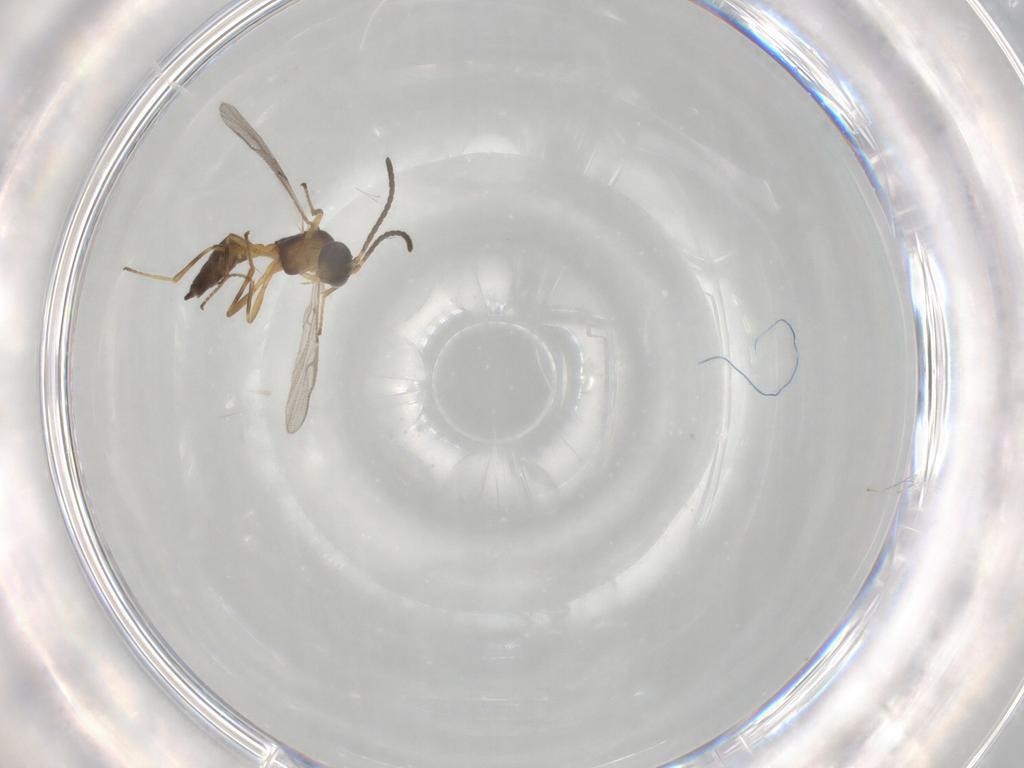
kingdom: Animalia
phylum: Arthropoda
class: Insecta
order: Hymenoptera
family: Braconidae
